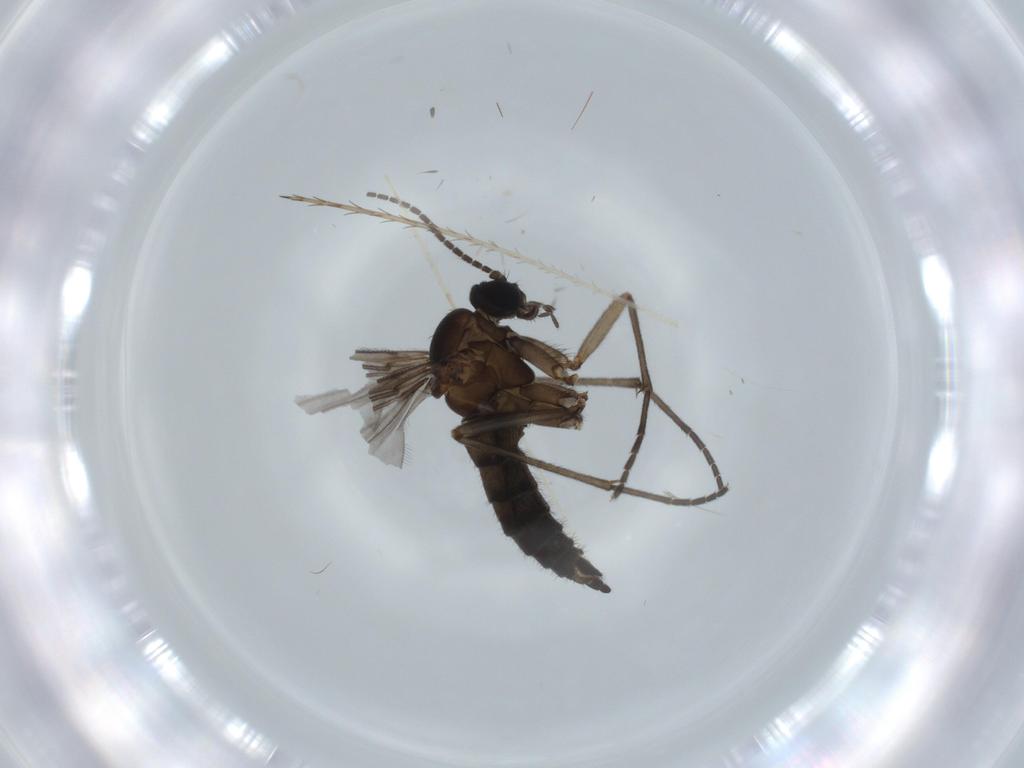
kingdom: Animalia
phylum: Arthropoda
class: Insecta
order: Diptera
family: Sciaridae
